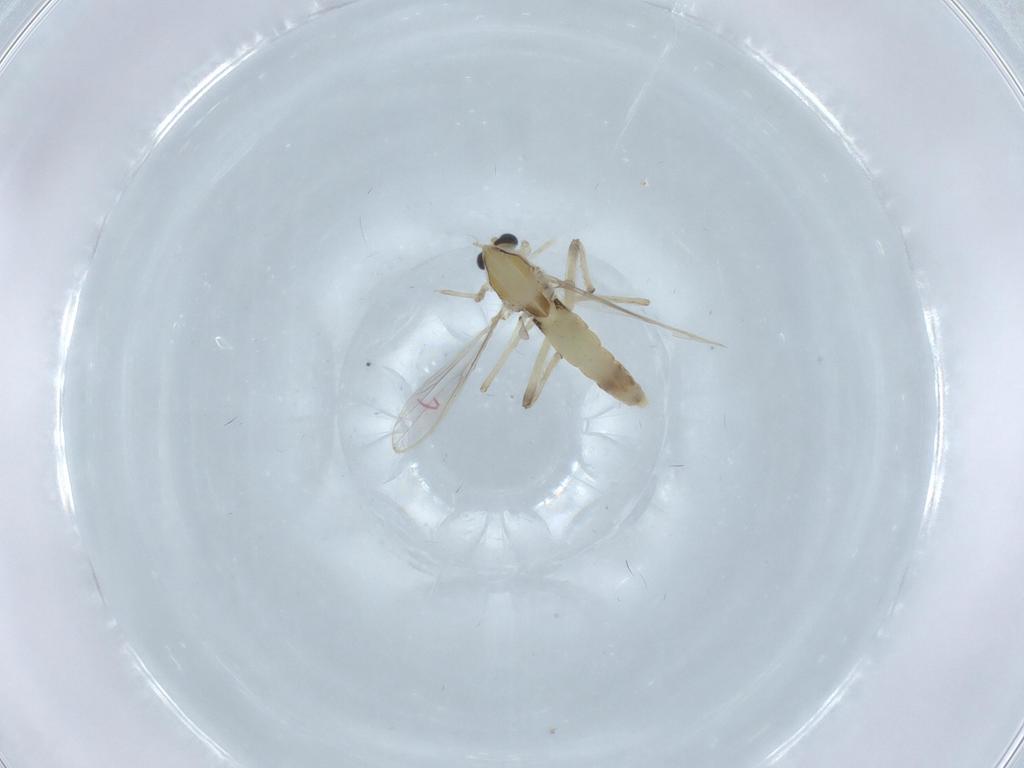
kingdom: Animalia
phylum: Arthropoda
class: Insecta
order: Diptera
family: Chironomidae
